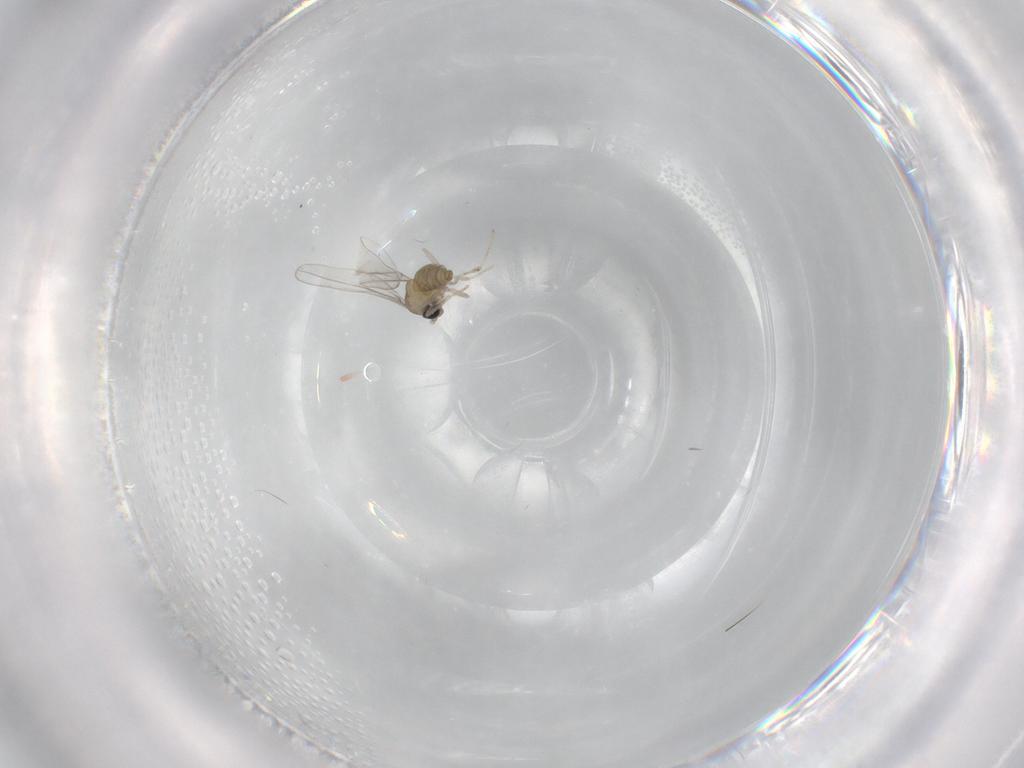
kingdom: Animalia
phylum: Arthropoda
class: Insecta
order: Diptera
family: Cecidomyiidae
